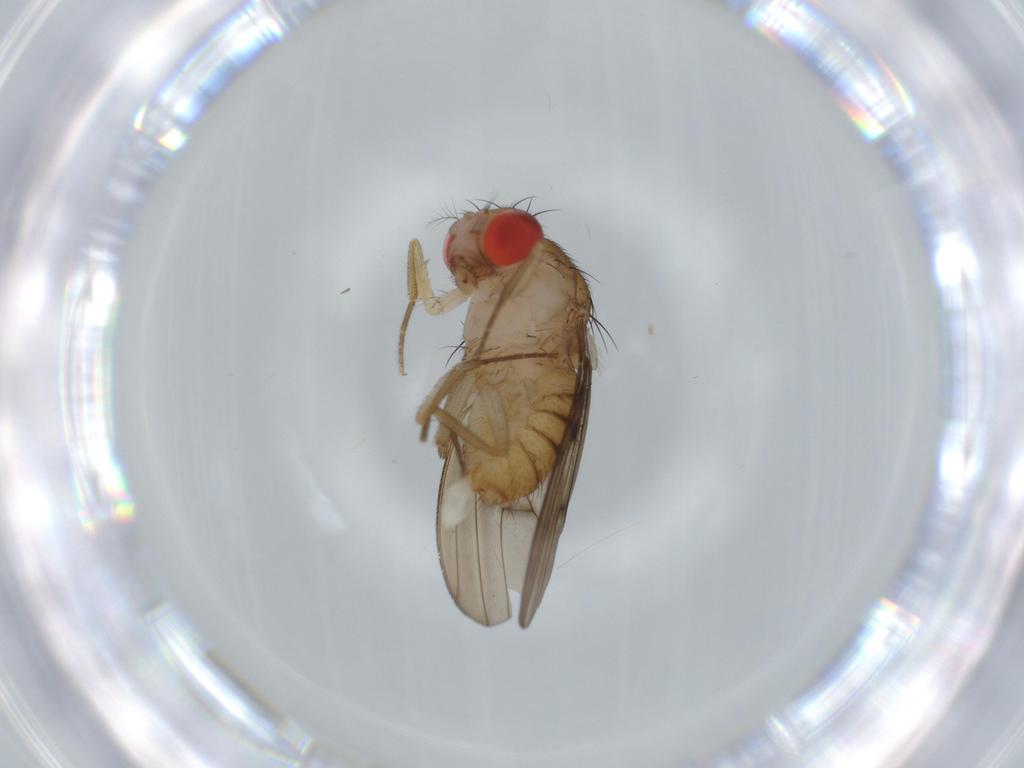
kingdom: Animalia
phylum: Arthropoda
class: Insecta
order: Diptera
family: Drosophilidae
